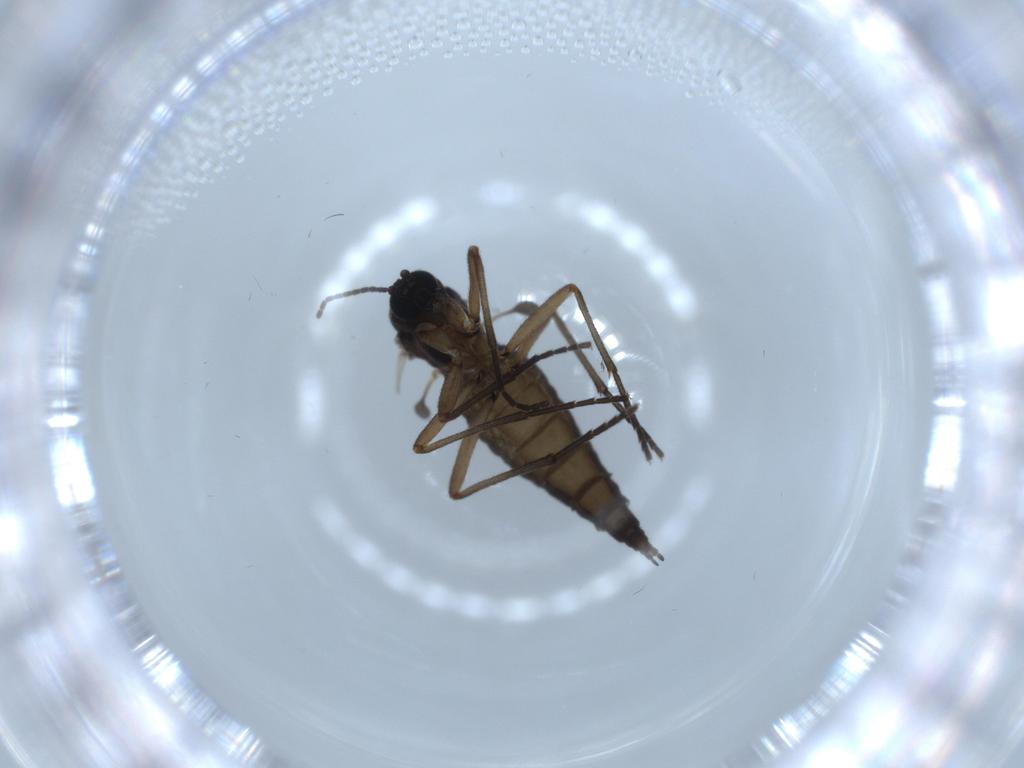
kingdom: Animalia
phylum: Arthropoda
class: Insecta
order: Diptera
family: Sciaridae
